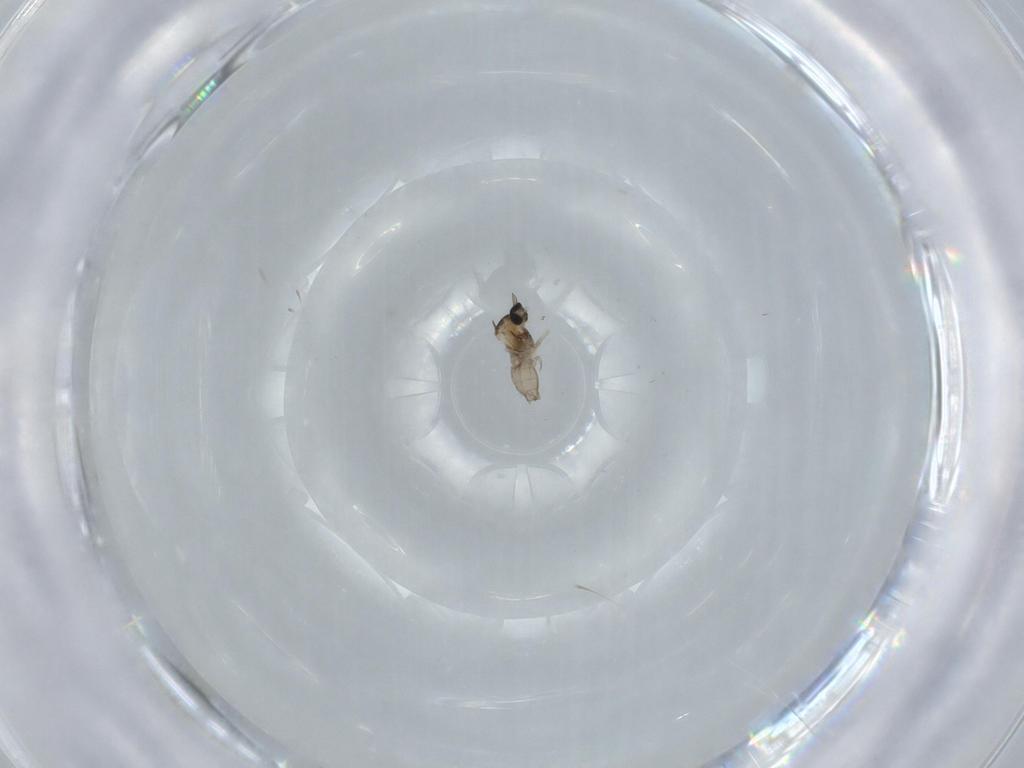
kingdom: Animalia
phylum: Arthropoda
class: Insecta
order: Diptera
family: Cecidomyiidae
